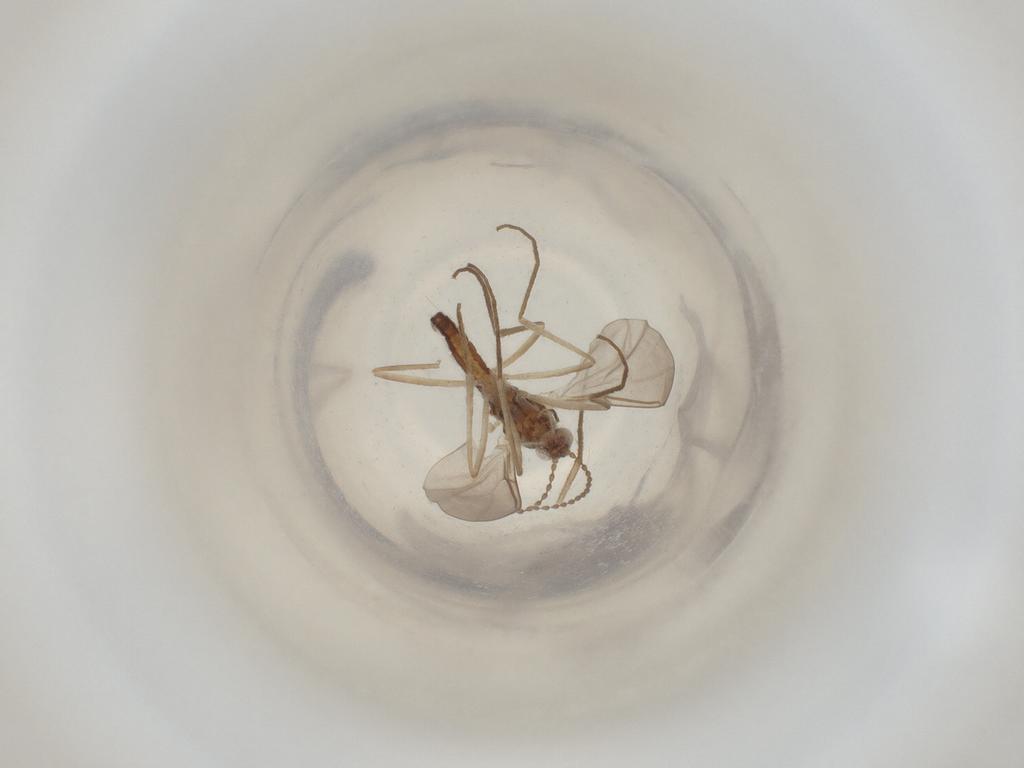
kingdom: Animalia
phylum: Arthropoda
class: Insecta
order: Diptera
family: Cecidomyiidae
